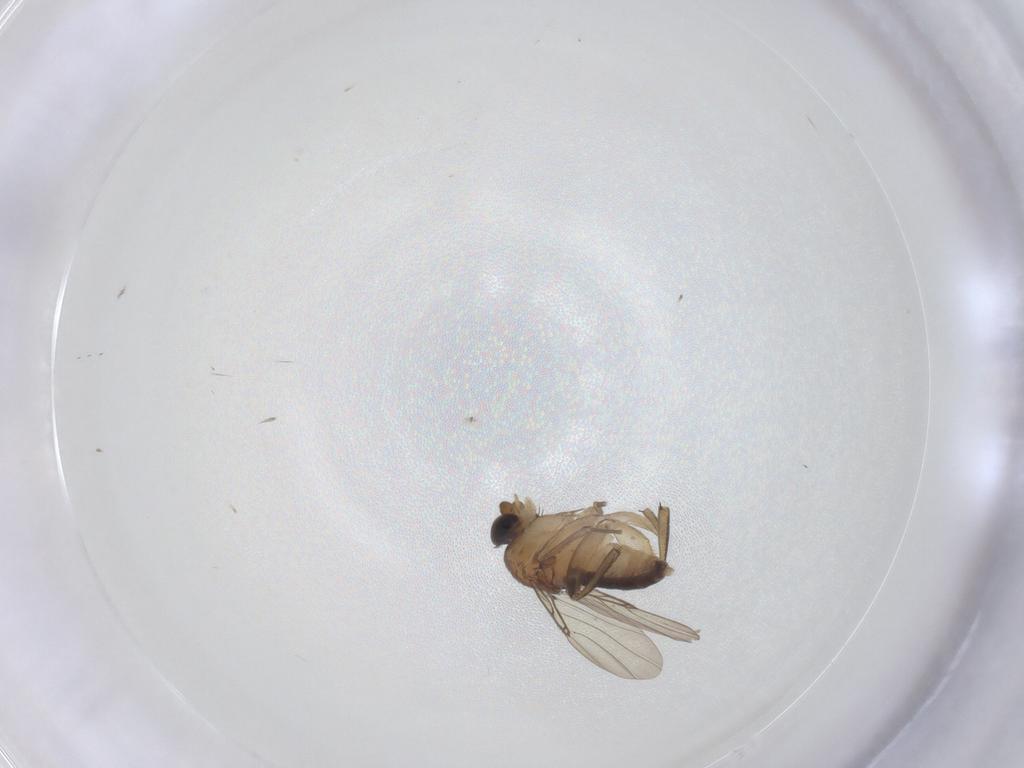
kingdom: Animalia
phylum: Arthropoda
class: Insecta
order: Diptera
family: Phoridae
